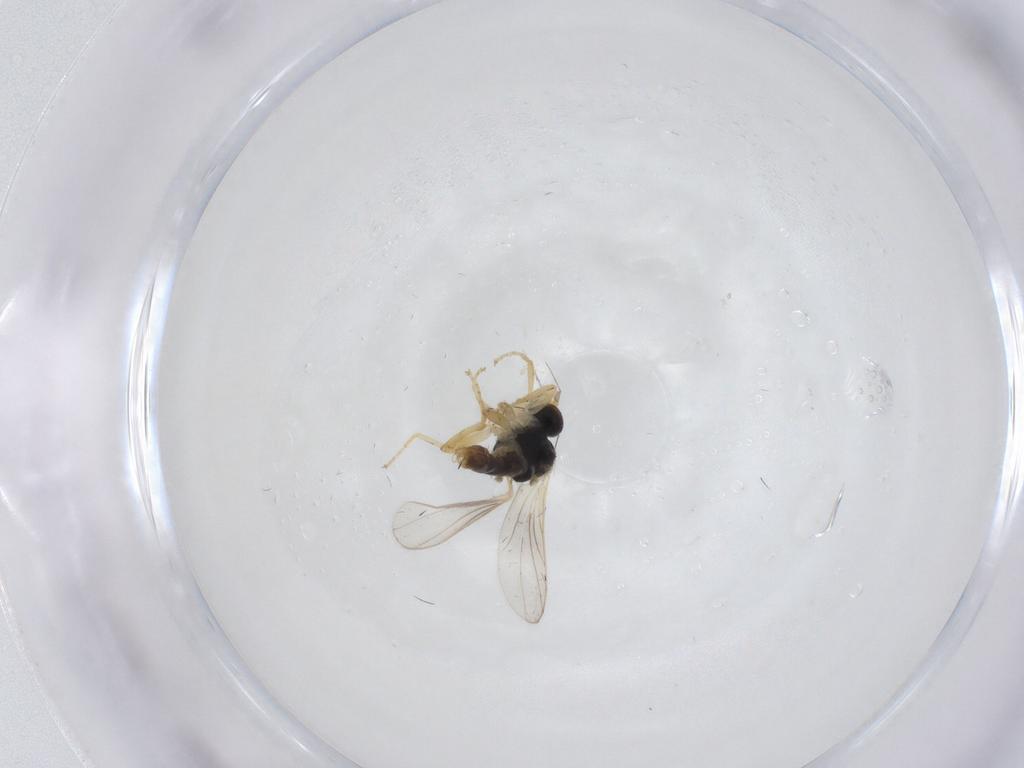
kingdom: Animalia
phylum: Arthropoda
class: Insecta
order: Diptera
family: Hybotidae
